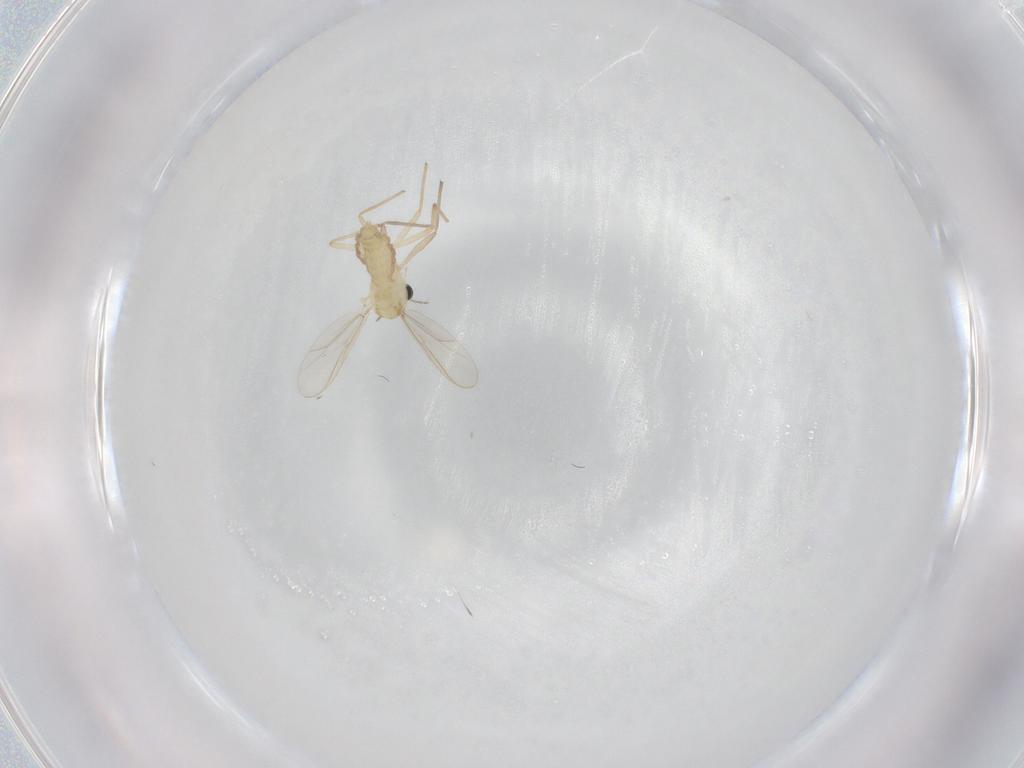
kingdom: Animalia
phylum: Arthropoda
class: Insecta
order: Diptera
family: Chironomidae
